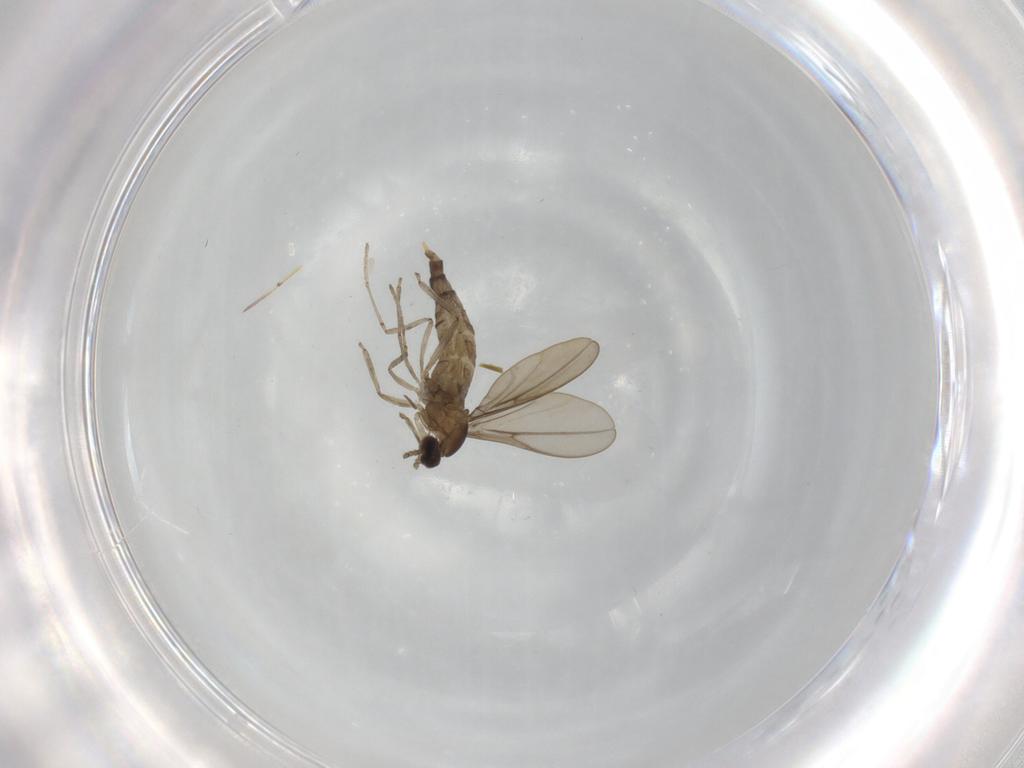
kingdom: Animalia
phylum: Arthropoda
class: Insecta
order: Diptera
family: Cecidomyiidae
